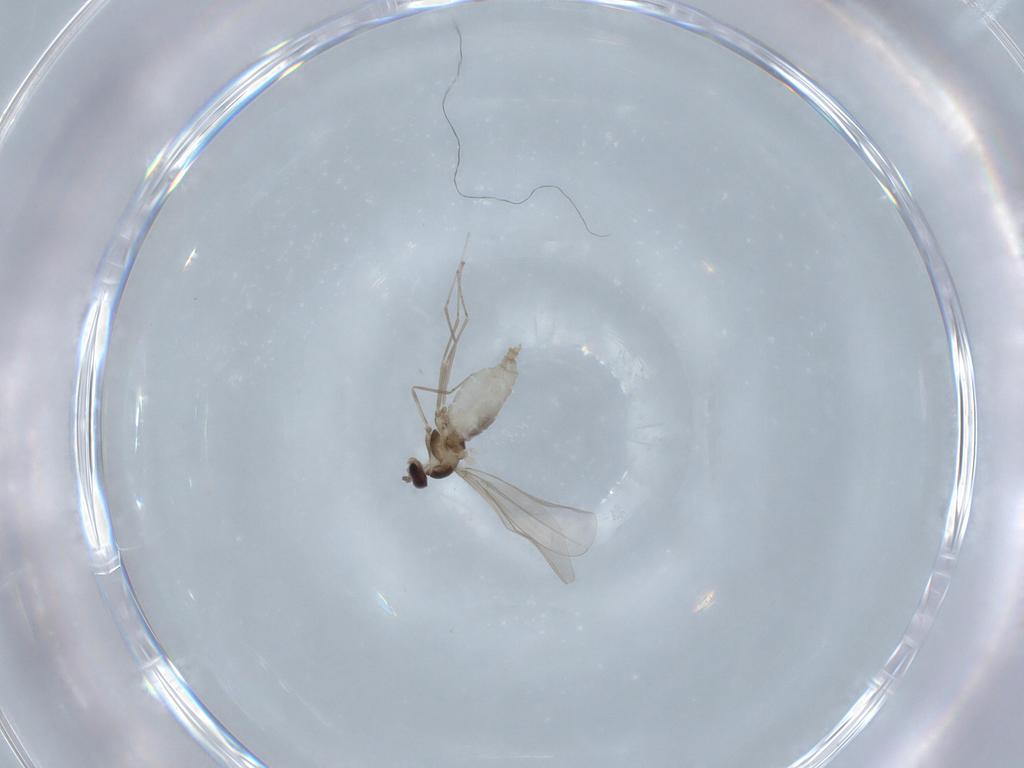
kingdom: Animalia
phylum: Arthropoda
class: Insecta
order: Diptera
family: Cecidomyiidae
